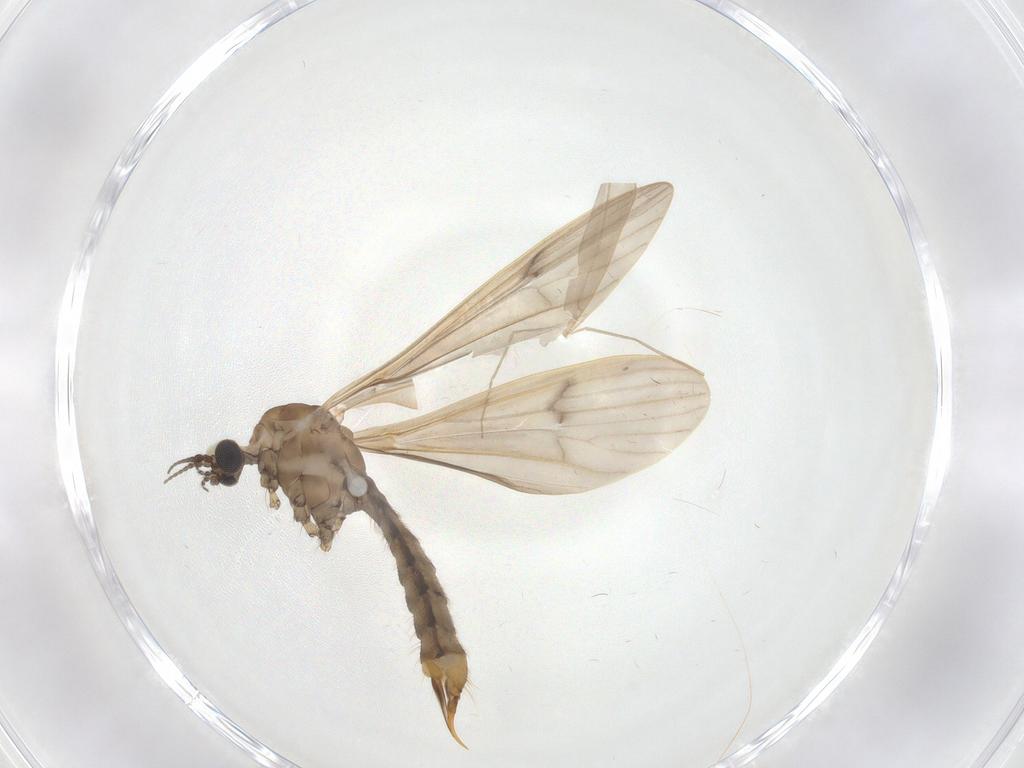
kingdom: Animalia
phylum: Arthropoda
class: Insecta
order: Diptera
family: Limoniidae
